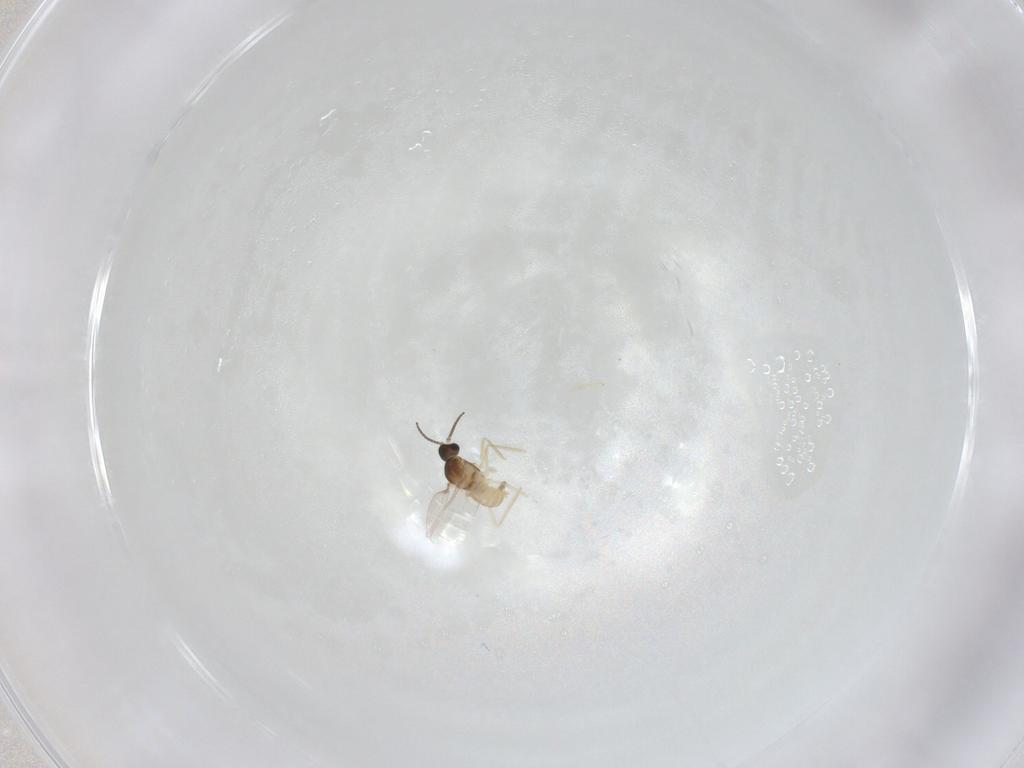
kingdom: Animalia
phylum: Arthropoda
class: Insecta
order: Diptera
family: Cecidomyiidae
